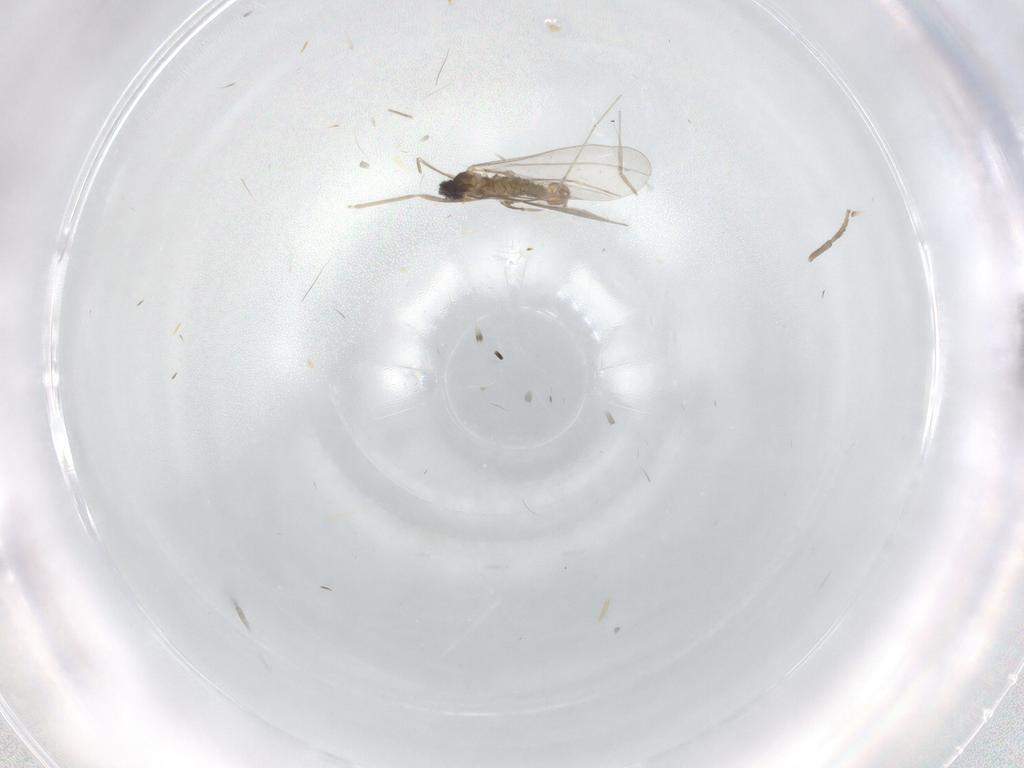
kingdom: Animalia
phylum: Arthropoda
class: Insecta
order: Diptera
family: Cecidomyiidae
